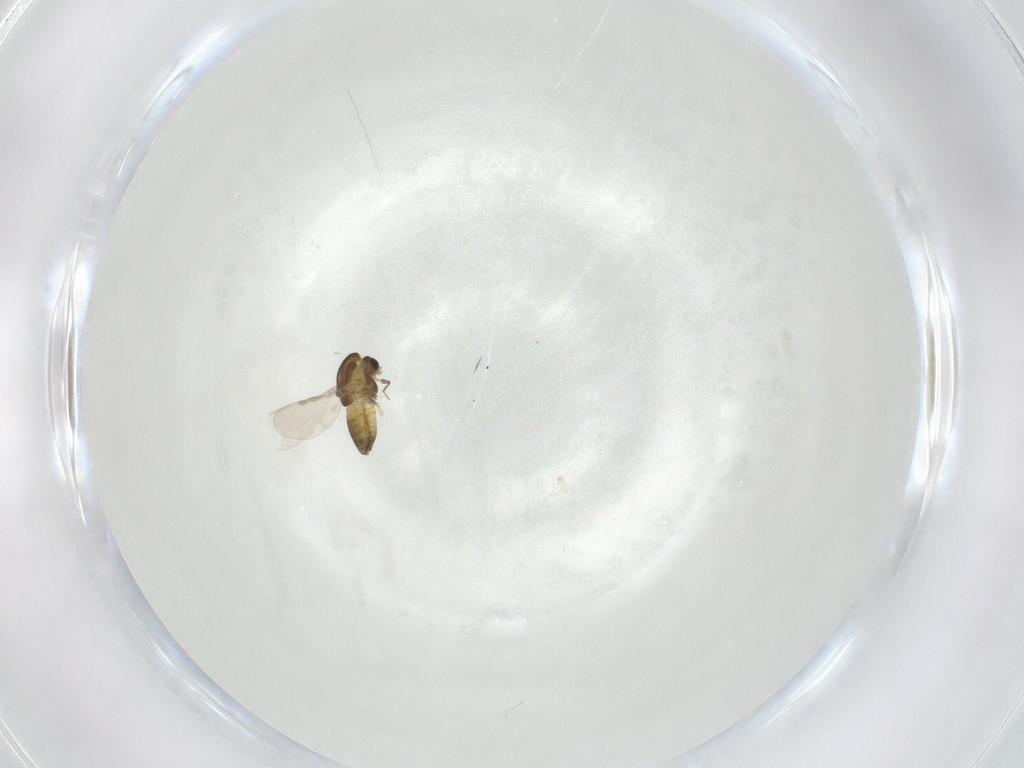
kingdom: Animalia
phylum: Arthropoda
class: Insecta
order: Diptera
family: Chironomidae
